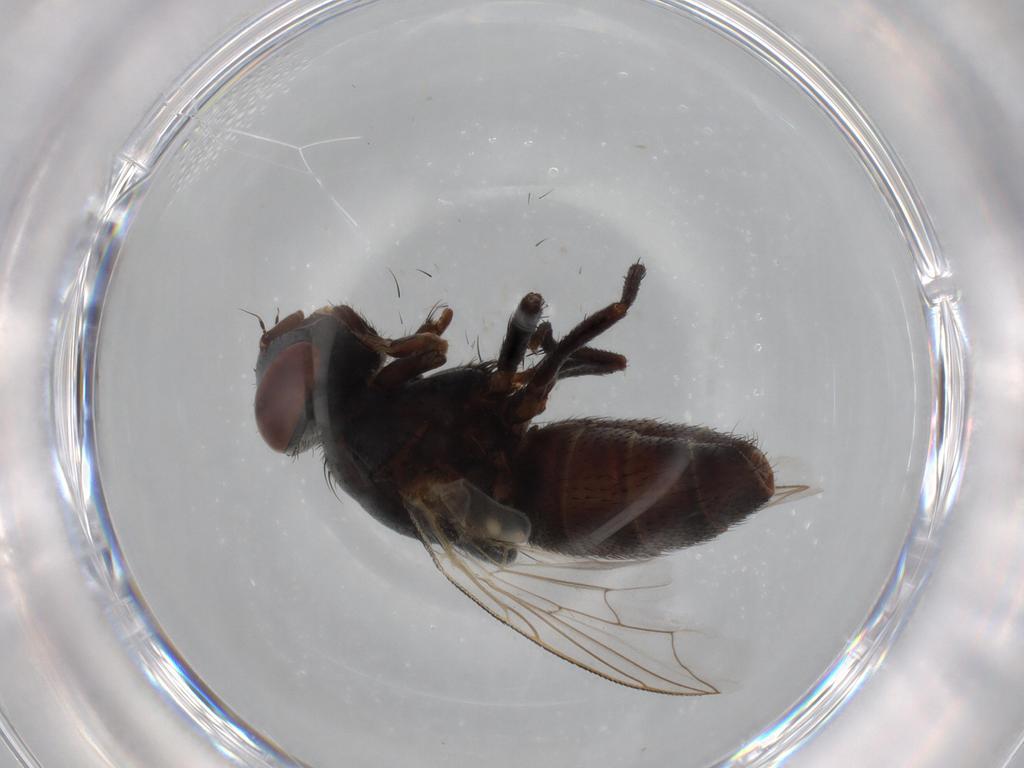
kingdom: Animalia
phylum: Arthropoda
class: Insecta
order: Diptera
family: Sarcophagidae
